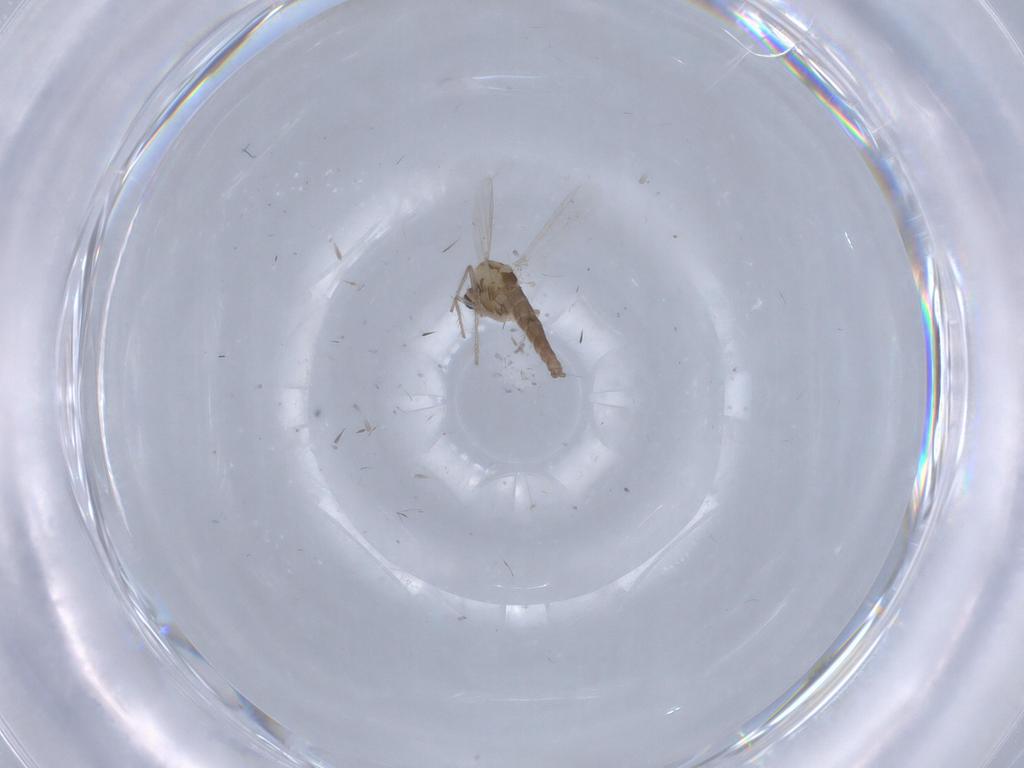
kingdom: Animalia
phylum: Arthropoda
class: Insecta
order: Diptera
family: Chironomidae
